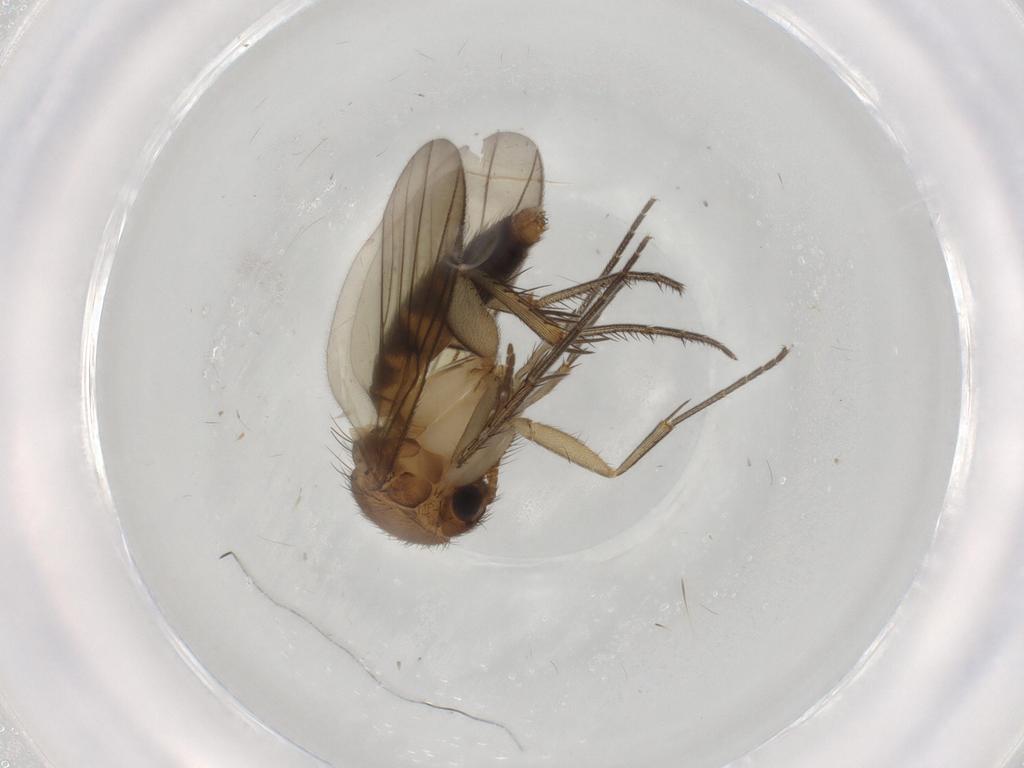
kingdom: Animalia
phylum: Arthropoda
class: Insecta
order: Diptera
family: Mycetophilidae
